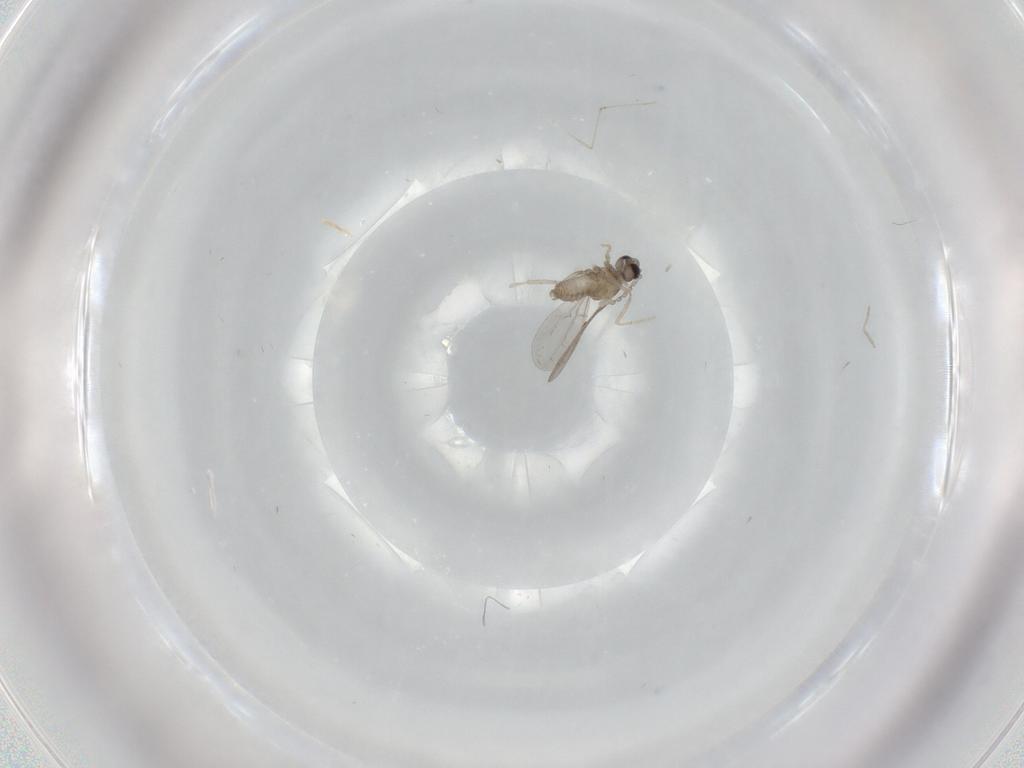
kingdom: Animalia
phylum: Arthropoda
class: Insecta
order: Diptera
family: Cecidomyiidae
